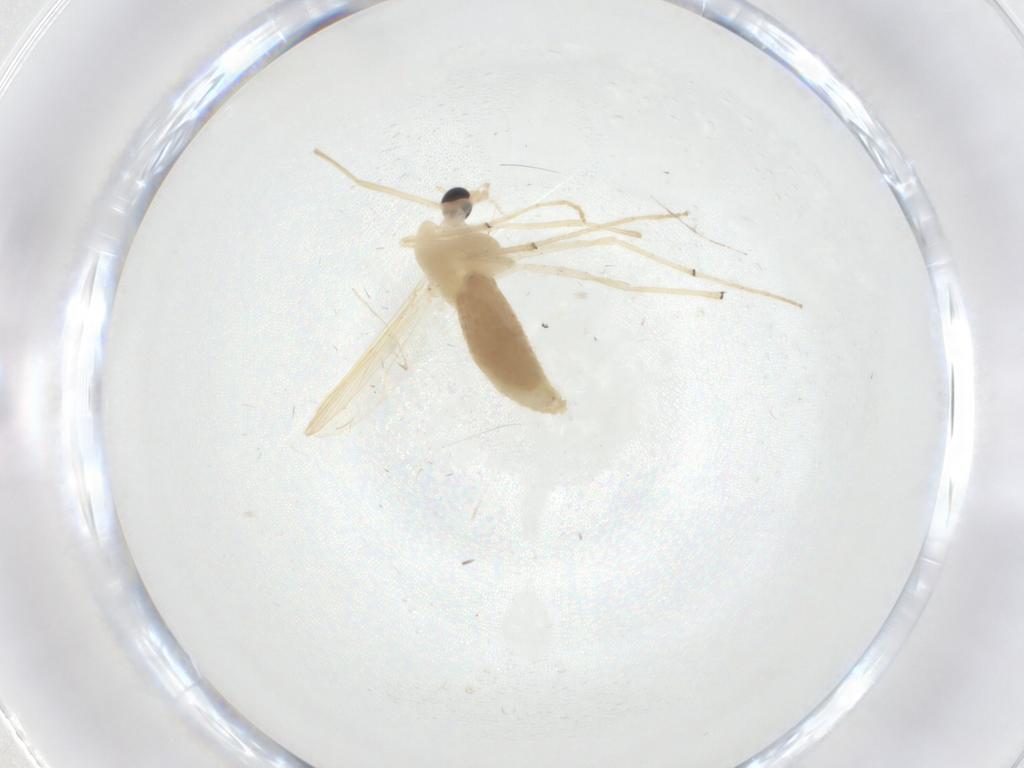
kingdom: Animalia
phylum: Arthropoda
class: Insecta
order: Diptera
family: Chironomidae
